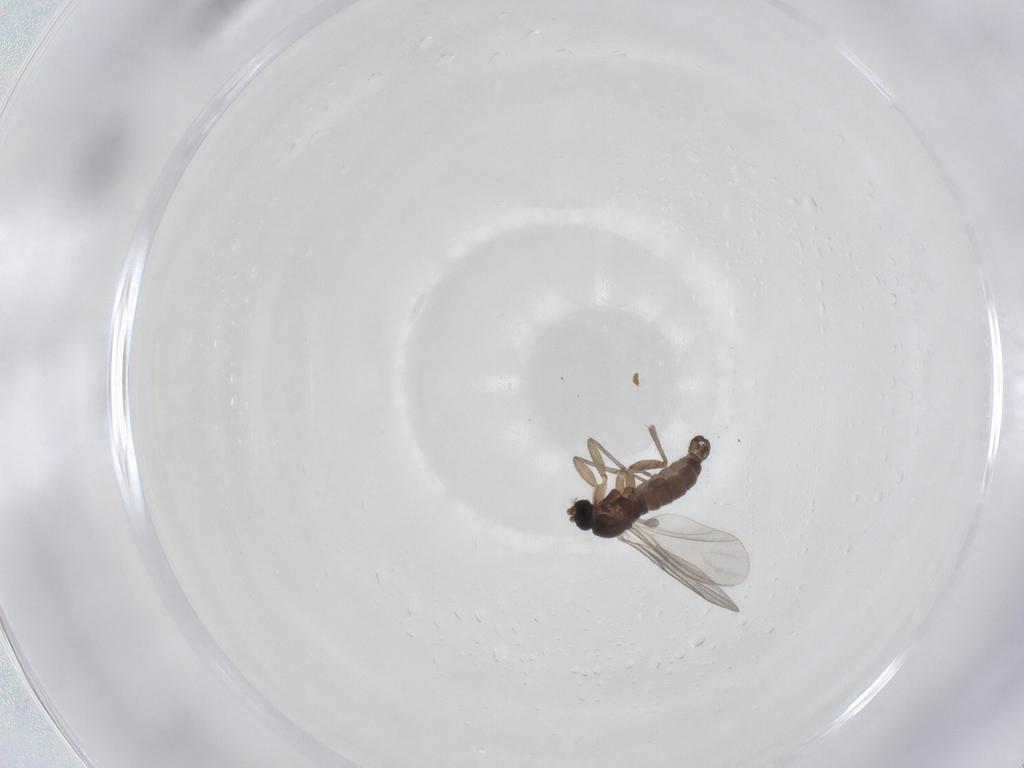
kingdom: Animalia
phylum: Arthropoda
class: Insecta
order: Diptera
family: Sciaridae
